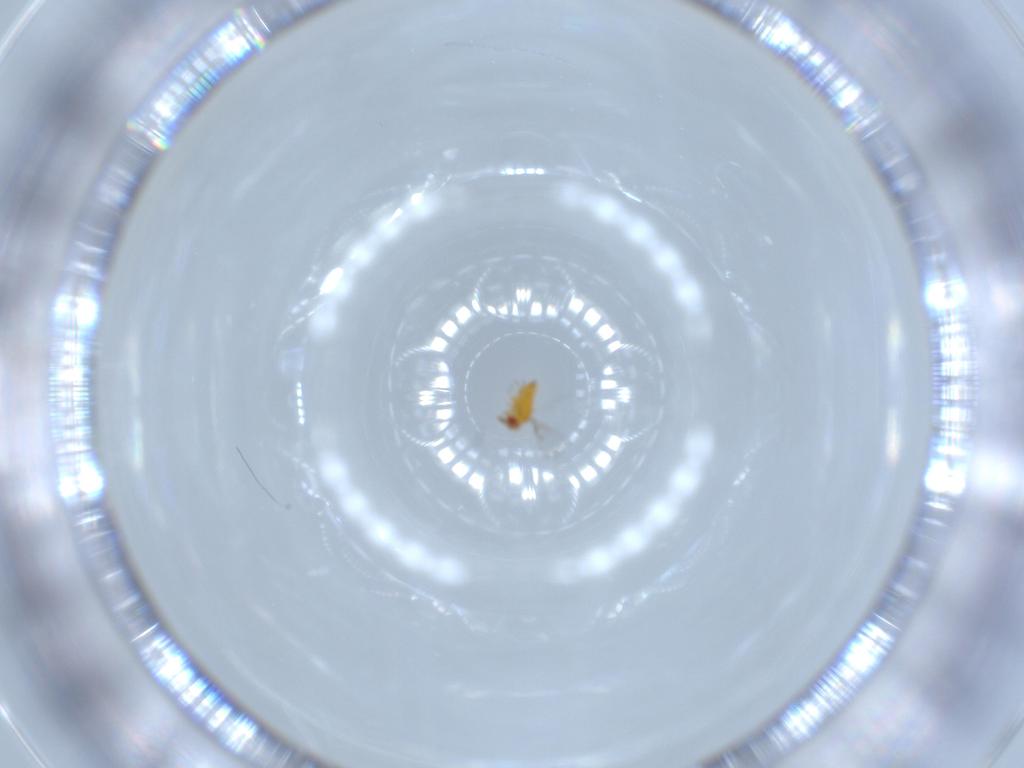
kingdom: Animalia
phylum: Arthropoda
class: Insecta
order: Hymenoptera
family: Trichogrammatidae
